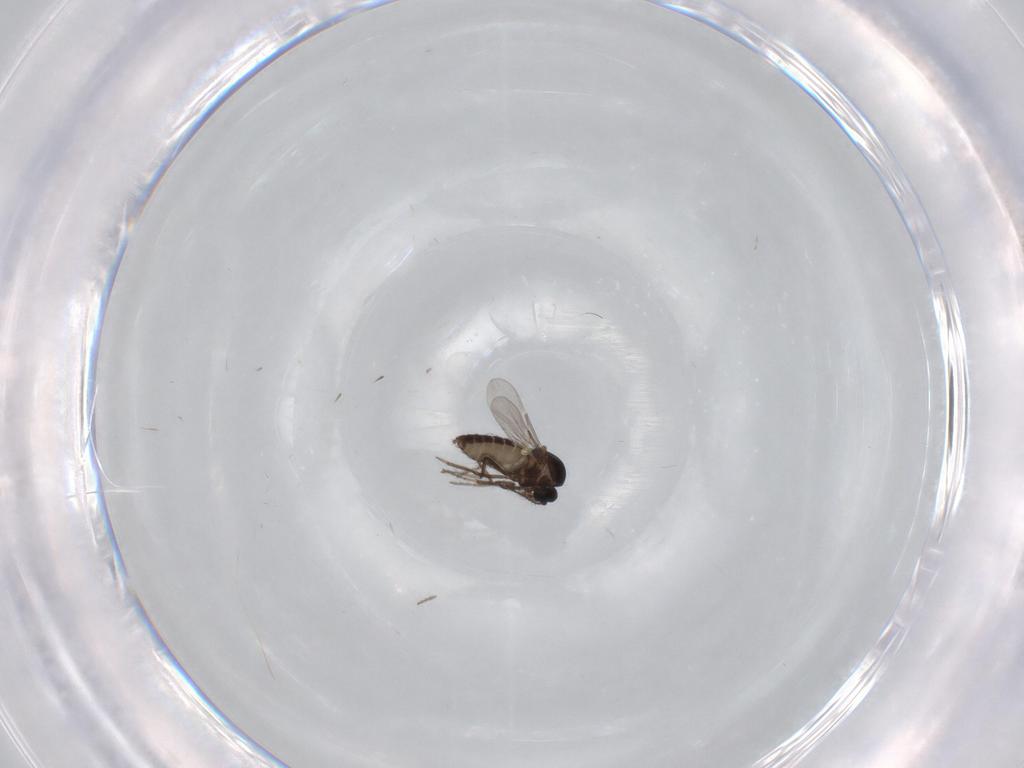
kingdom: Animalia
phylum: Arthropoda
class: Insecta
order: Diptera
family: Ceratopogonidae
